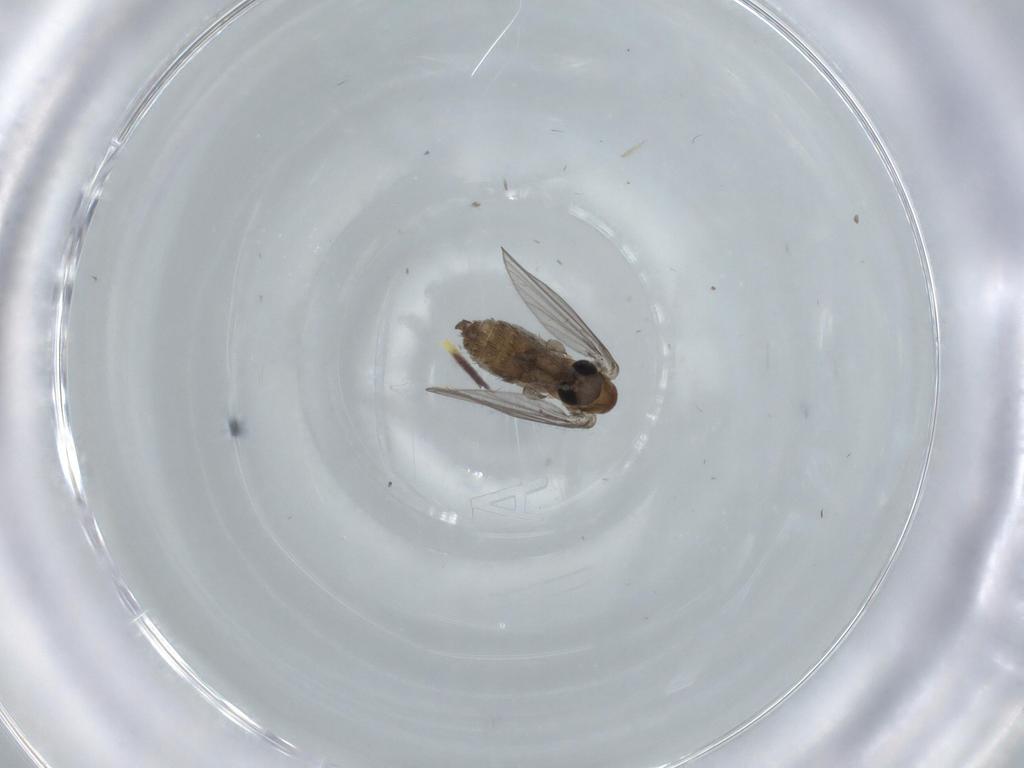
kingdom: Animalia
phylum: Arthropoda
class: Insecta
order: Diptera
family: Psychodidae
